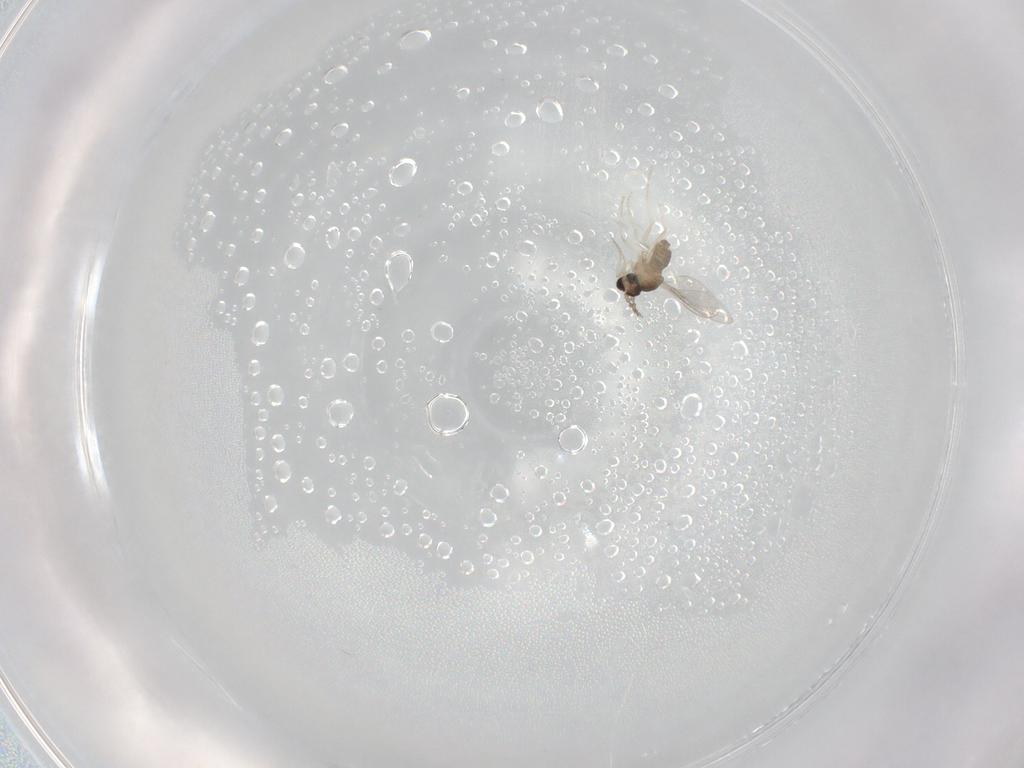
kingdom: Animalia
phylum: Arthropoda
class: Insecta
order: Diptera
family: Cecidomyiidae
